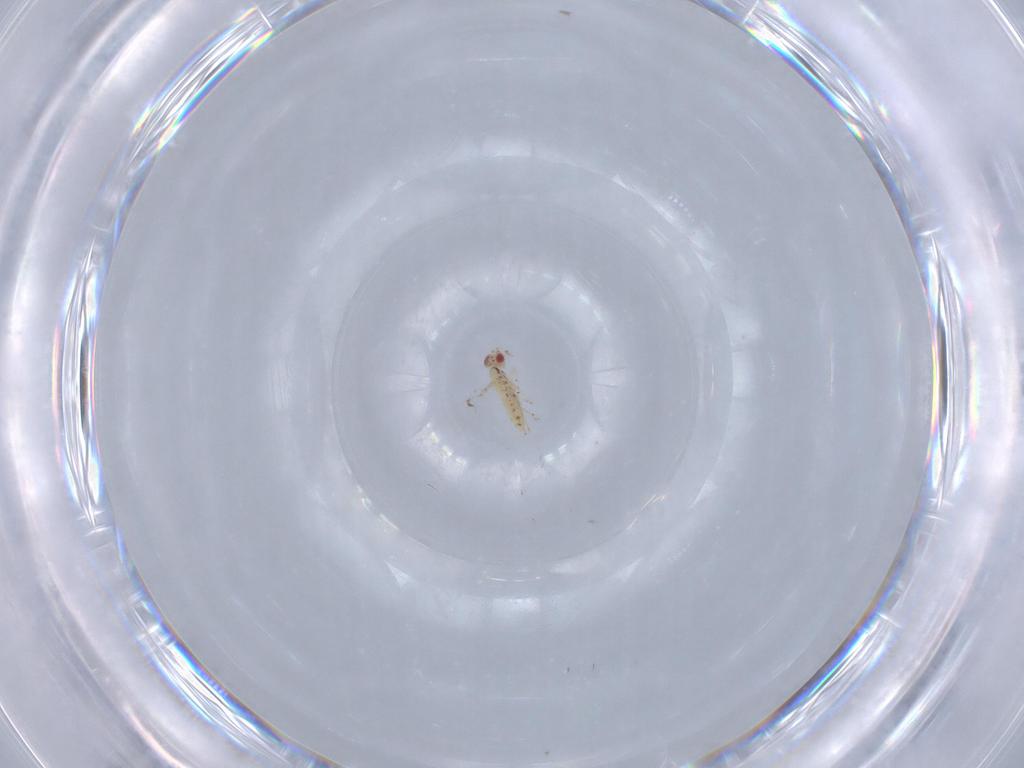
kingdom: Animalia
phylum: Arthropoda
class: Insecta
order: Hymenoptera
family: Trichogrammatidae
